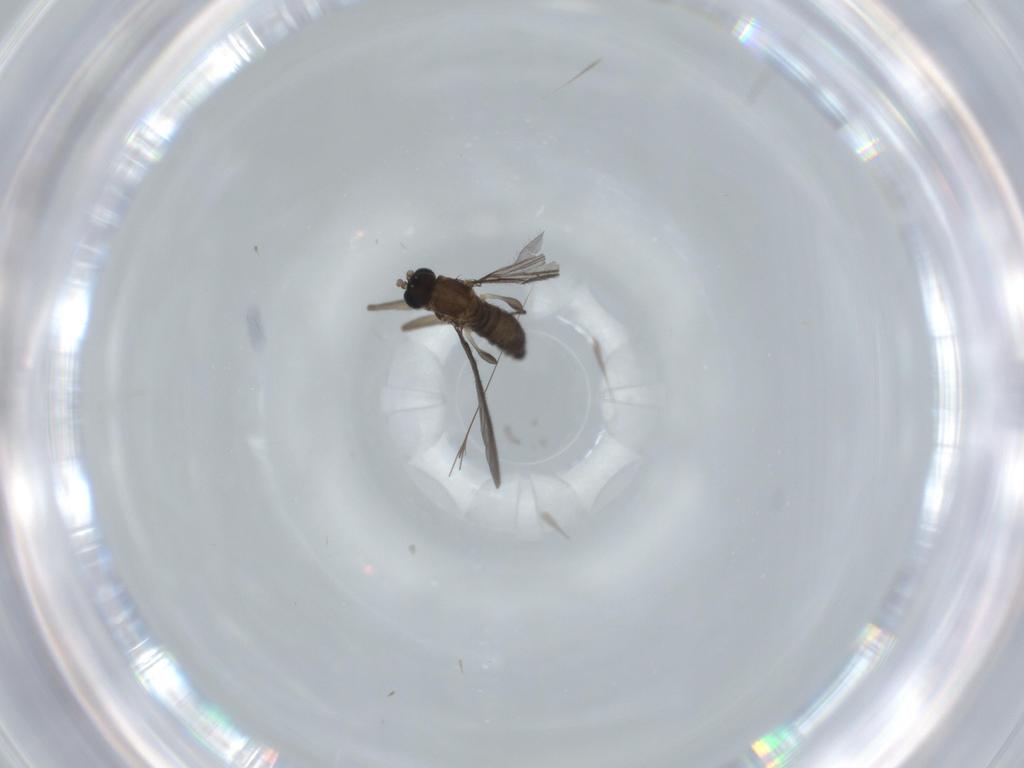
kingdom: Animalia
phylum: Arthropoda
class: Insecta
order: Diptera
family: Sciaridae
